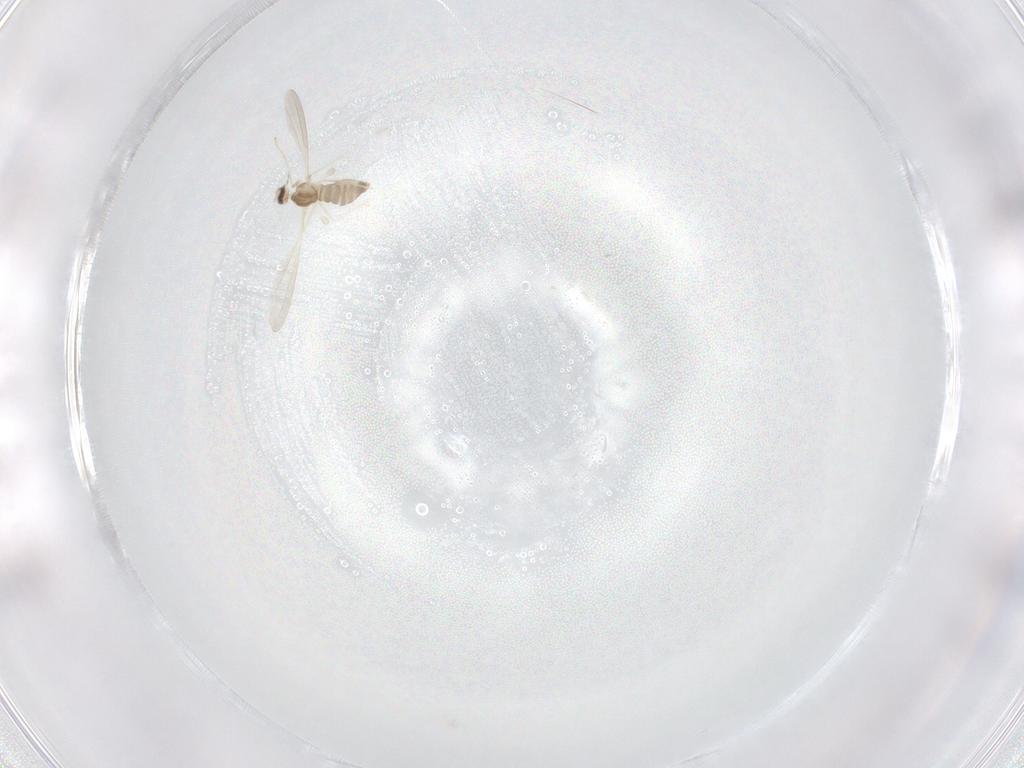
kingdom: Animalia
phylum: Arthropoda
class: Insecta
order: Diptera
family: Cecidomyiidae
